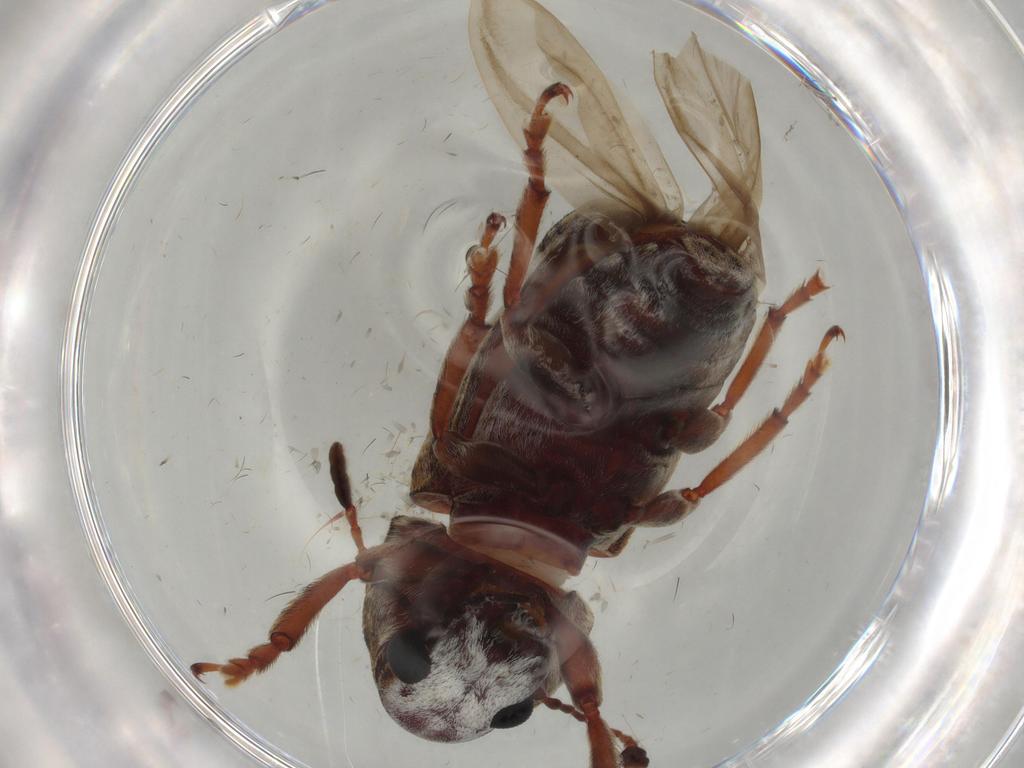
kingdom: Animalia
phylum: Arthropoda
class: Insecta
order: Coleoptera
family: Anthribidae
